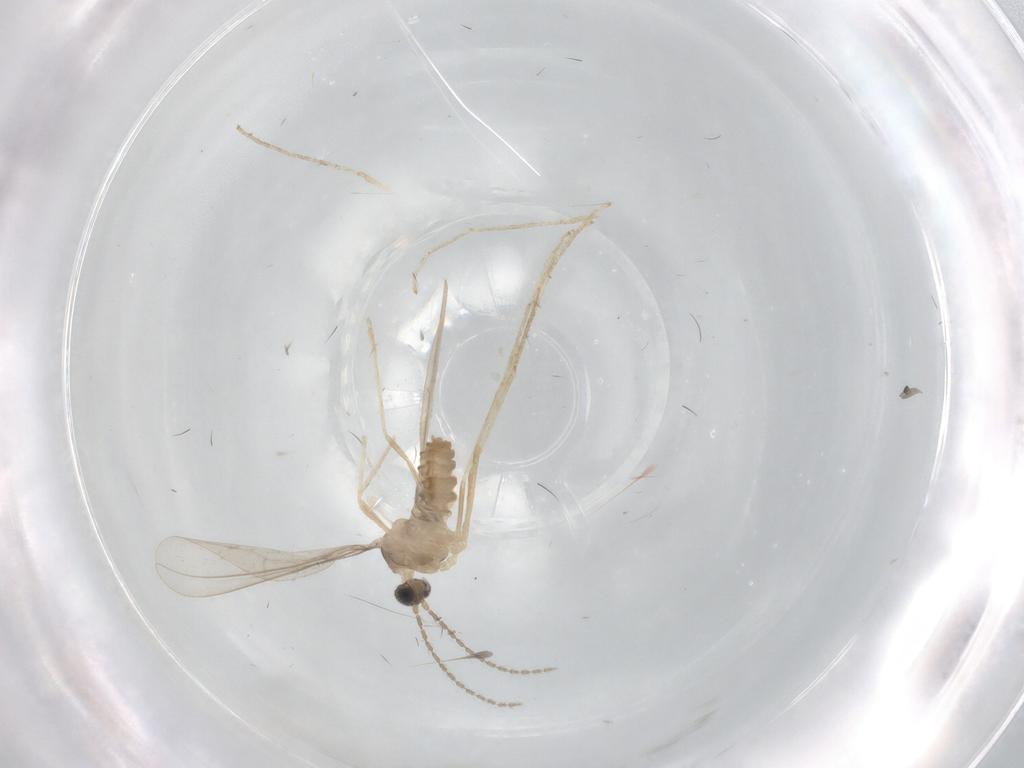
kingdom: Animalia
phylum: Arthropoda
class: Insecta
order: Diptera
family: Cecidomyiidae
